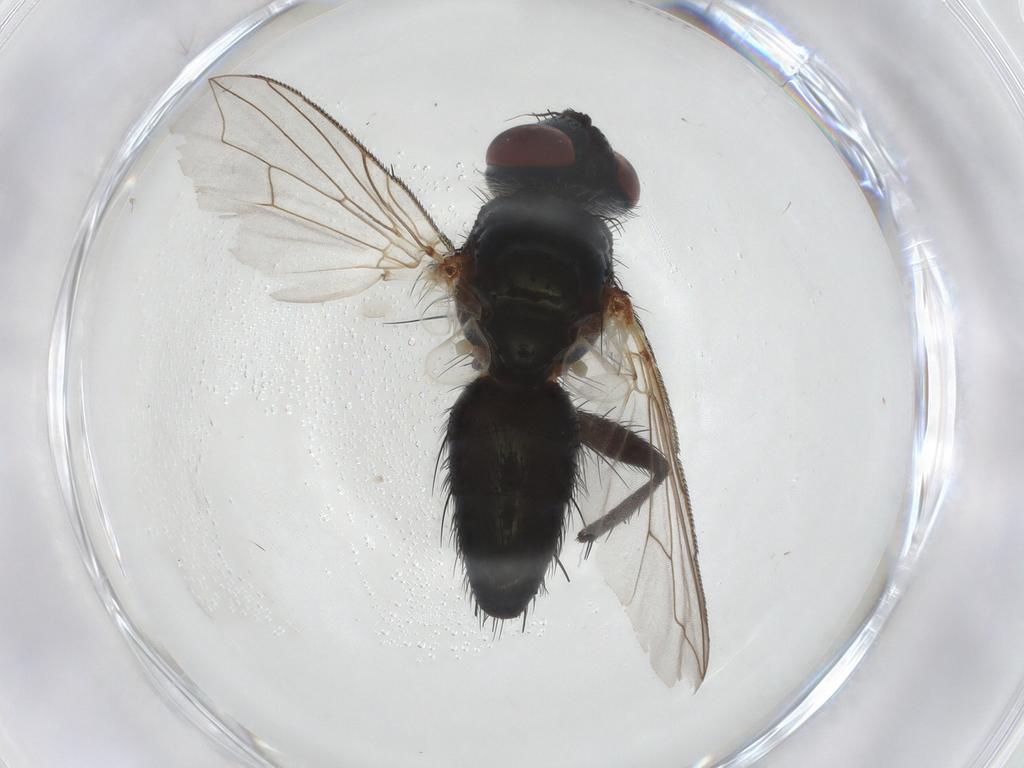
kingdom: Animalia
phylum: Arthropoda
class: Insecta
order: Diptera
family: Tachinidae
